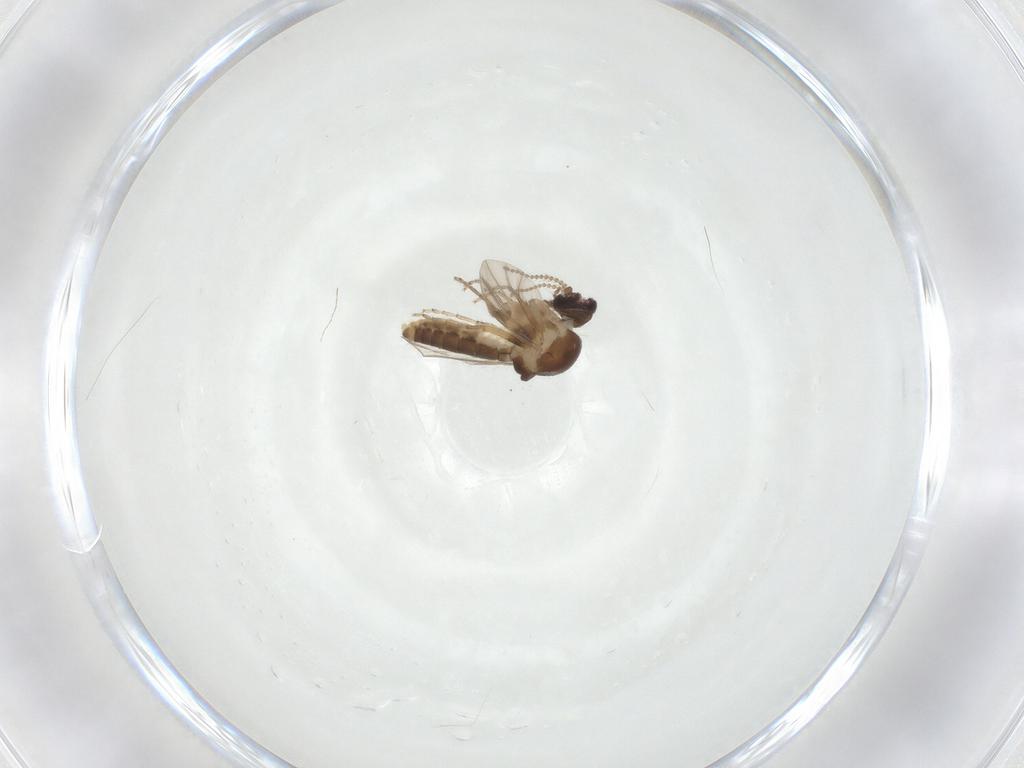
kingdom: Animalia
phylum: Arthropoda
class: Insecta
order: Diptera
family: Ceratopogonidae
